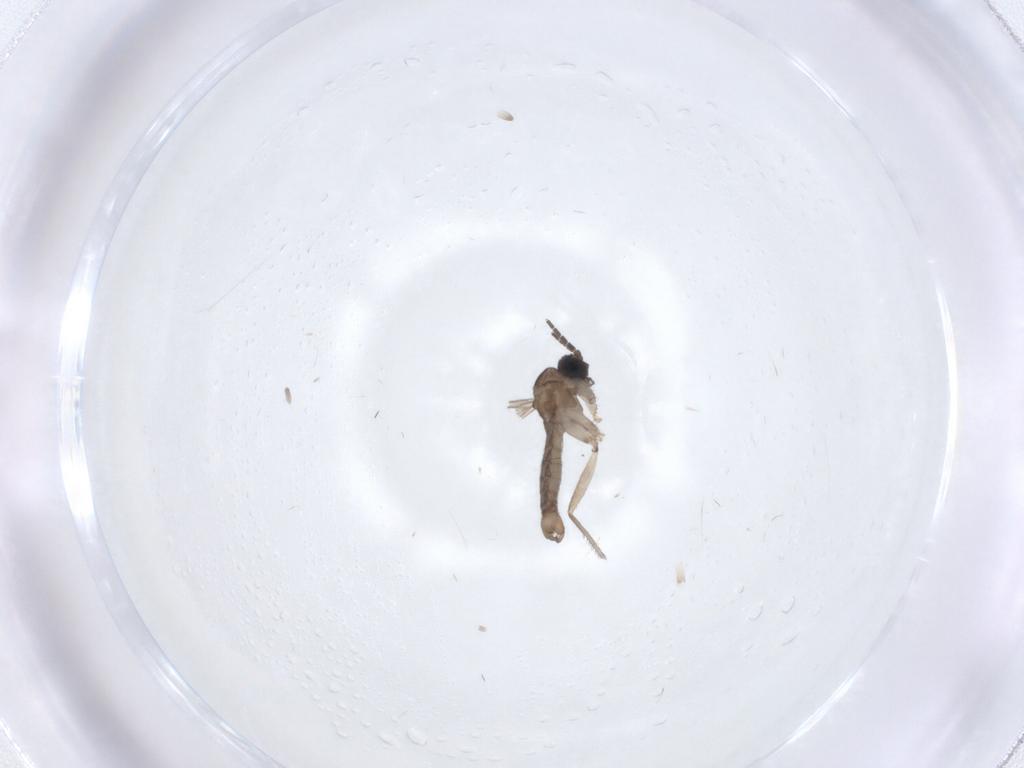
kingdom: Animalia
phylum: Arthropoda
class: Insecta
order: Diptera
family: Sciaridae
